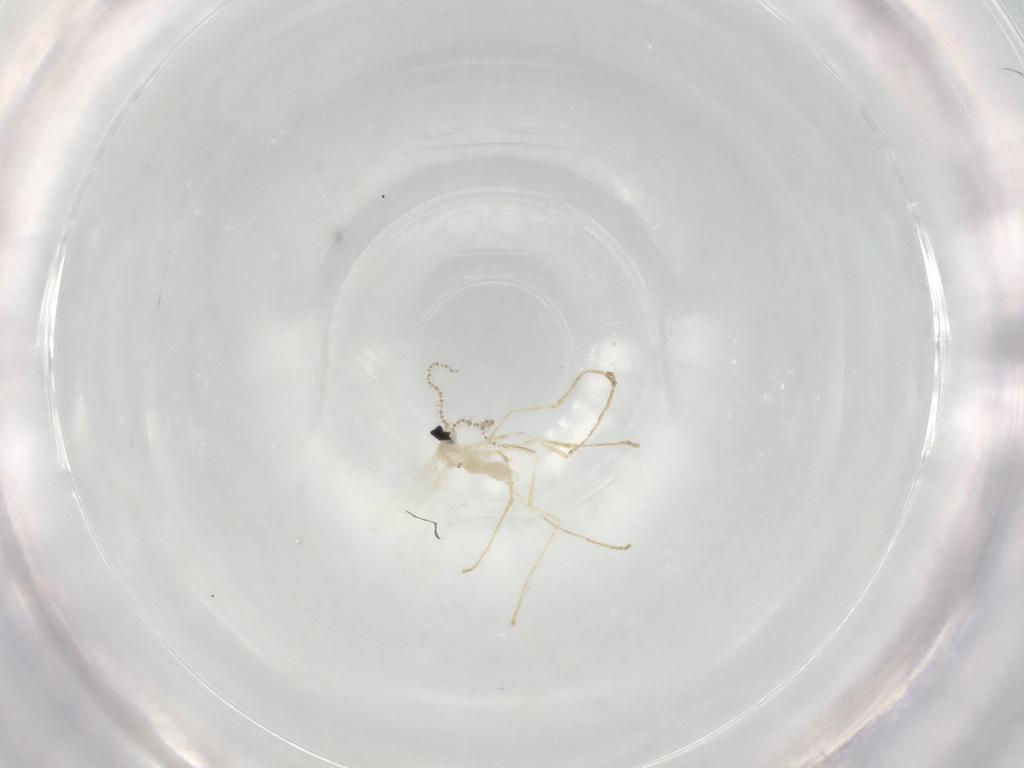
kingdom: Animalia
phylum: Arthropoda
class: Insecta
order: Diptera
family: Cecidomyiidae
